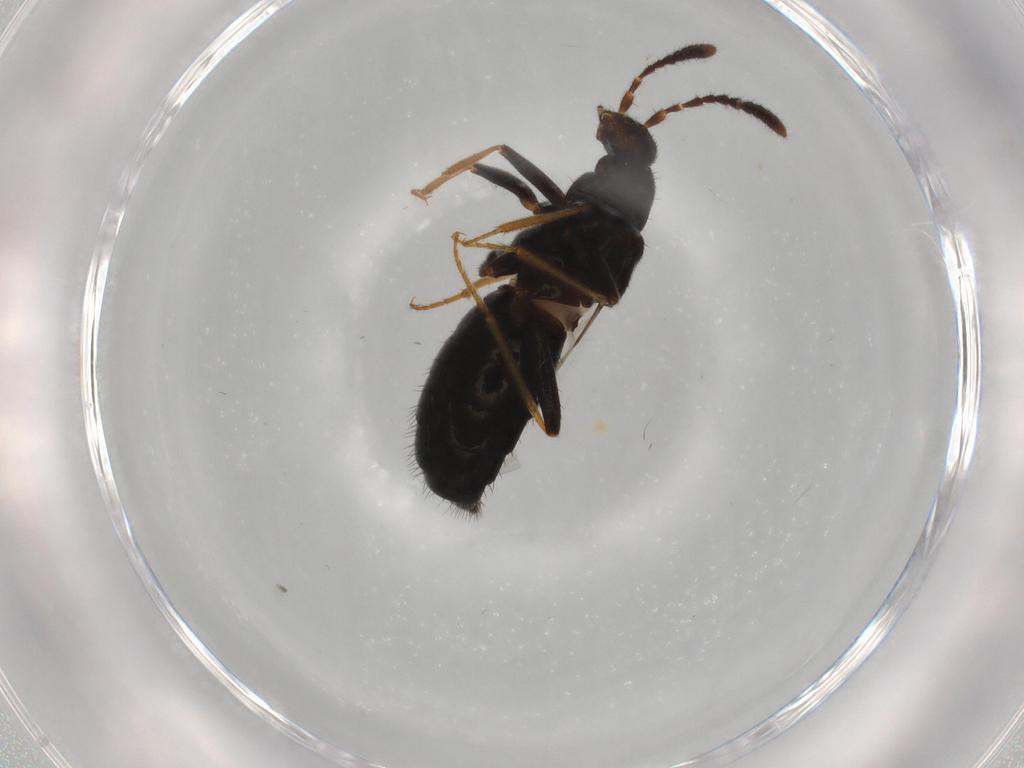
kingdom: Animalia
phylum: Arthropoda
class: Insecta
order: Coleoptera
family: Staphylinidae
